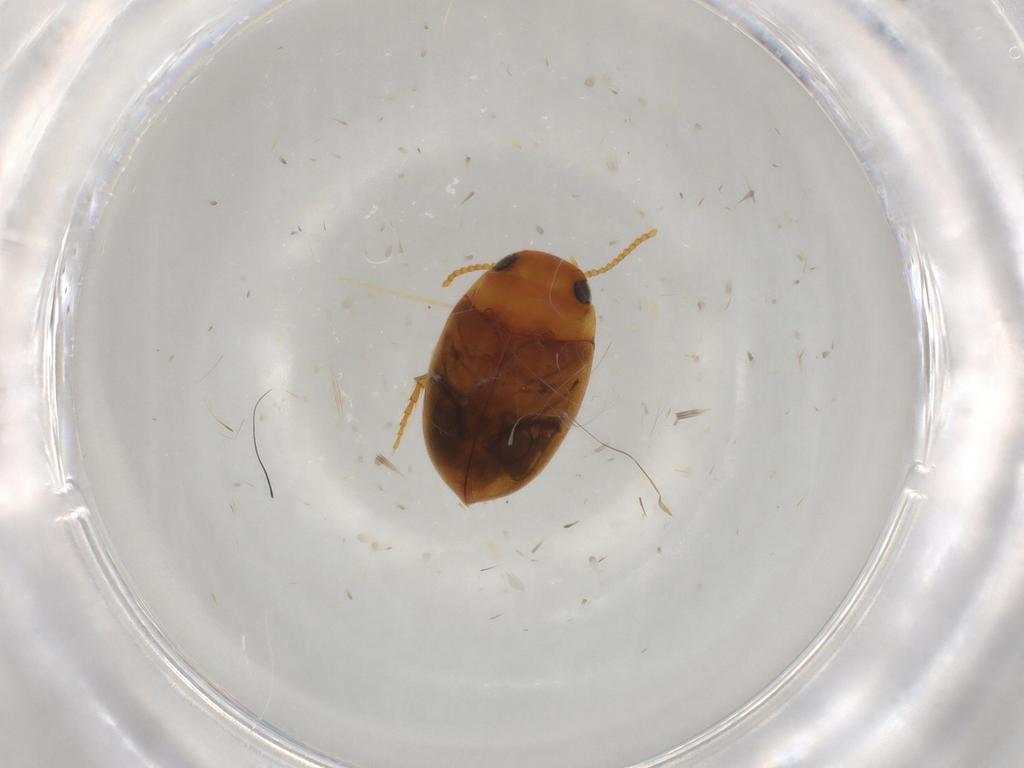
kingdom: Animalia
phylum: Arthropoda
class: Insecta
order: Coleoptera
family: Dytiscidae
